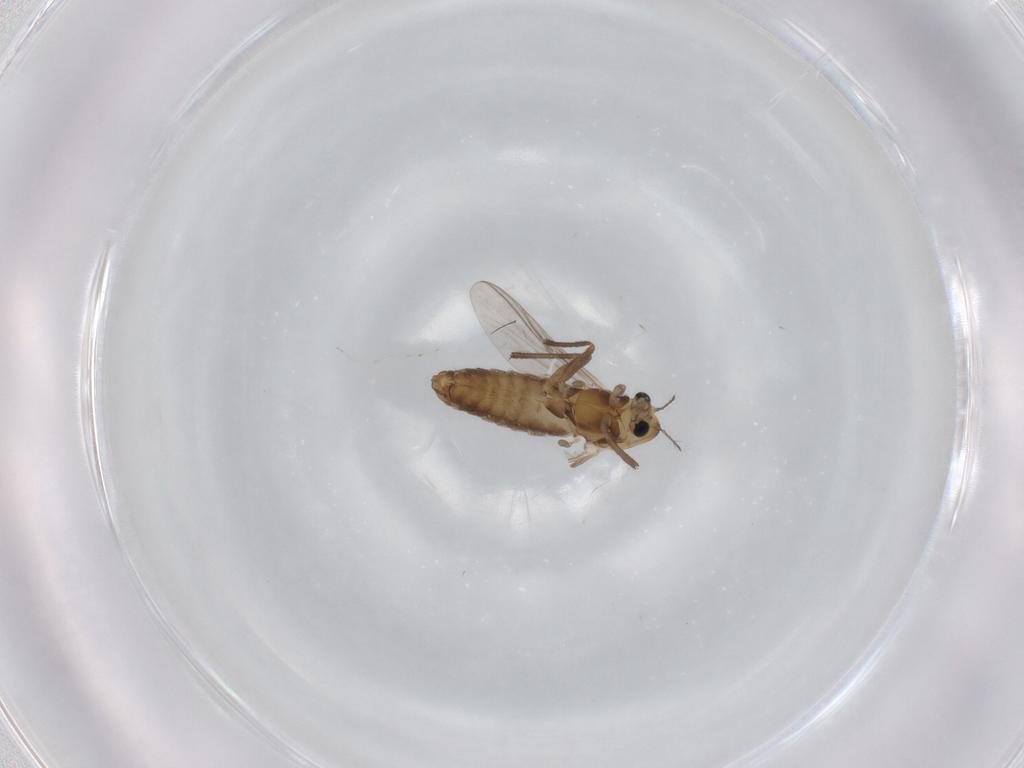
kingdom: Animalia
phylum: Arthropoda
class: Insecta
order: Diptera
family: Chironomidae
